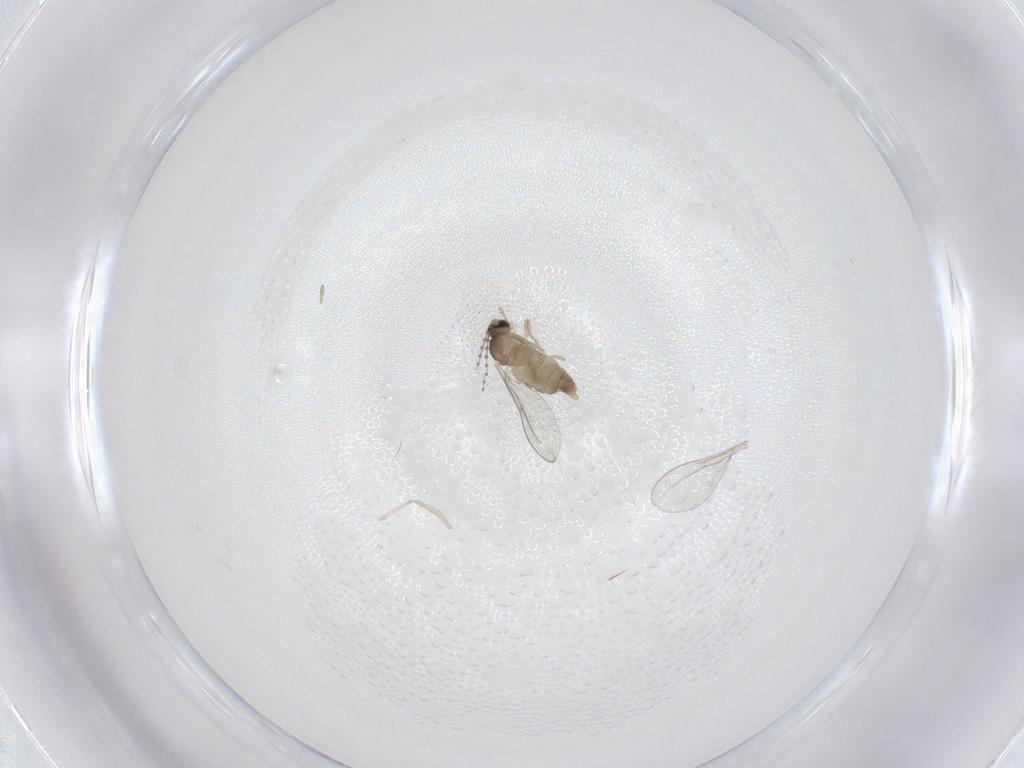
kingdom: Animalia
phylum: Arthropoda
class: Insecta
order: Diptera
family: Cecidomyiidae
